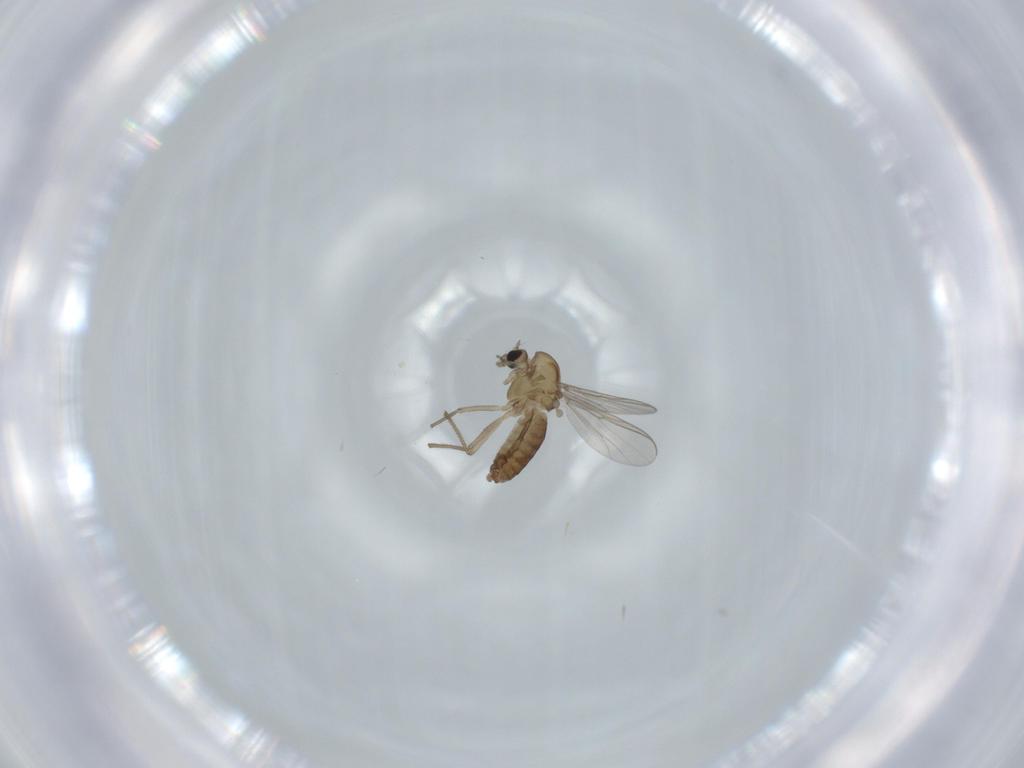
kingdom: Animalia
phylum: Arthropoda
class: Insecta
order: Diptera
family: Chironomidae
